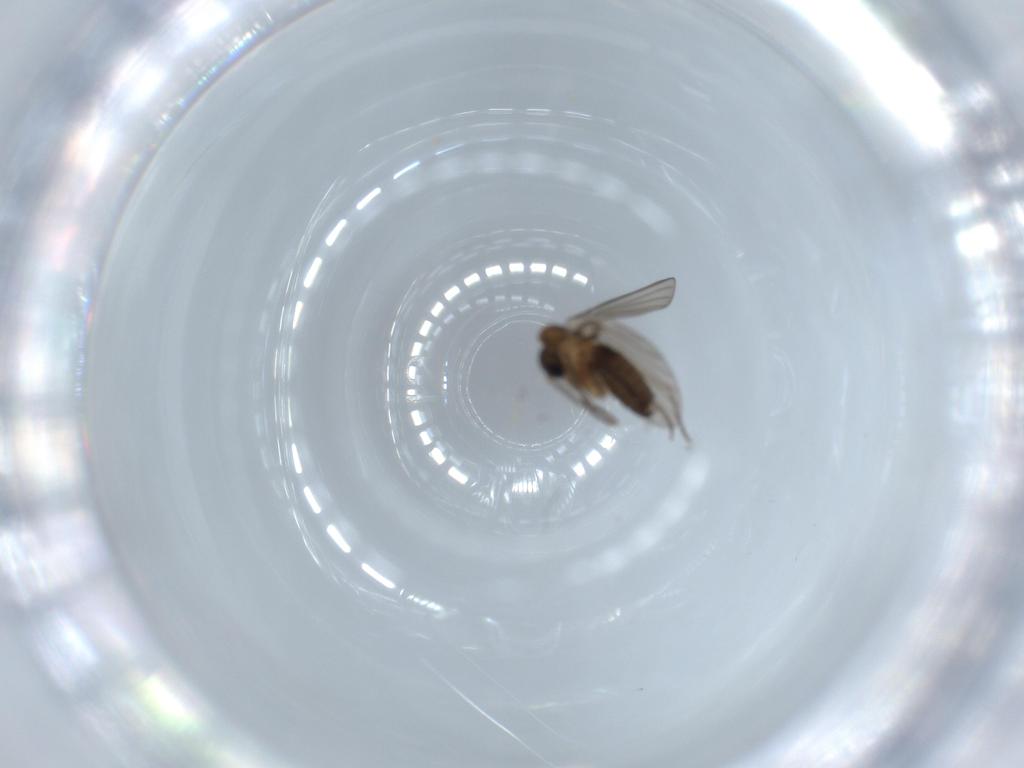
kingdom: Animalia
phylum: Arthropoda
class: Insecta
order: Diptera
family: Psychodidae
